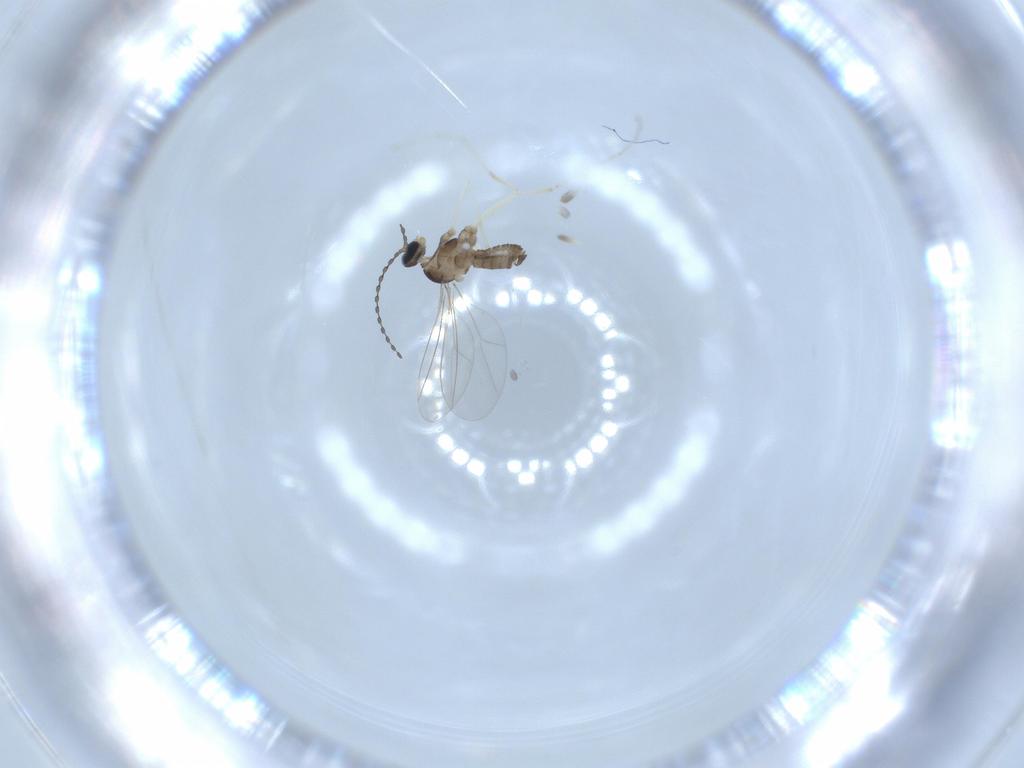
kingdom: Animalia
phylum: Arthropoda
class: Insecta
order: Diptera
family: Cecidomyiidae
